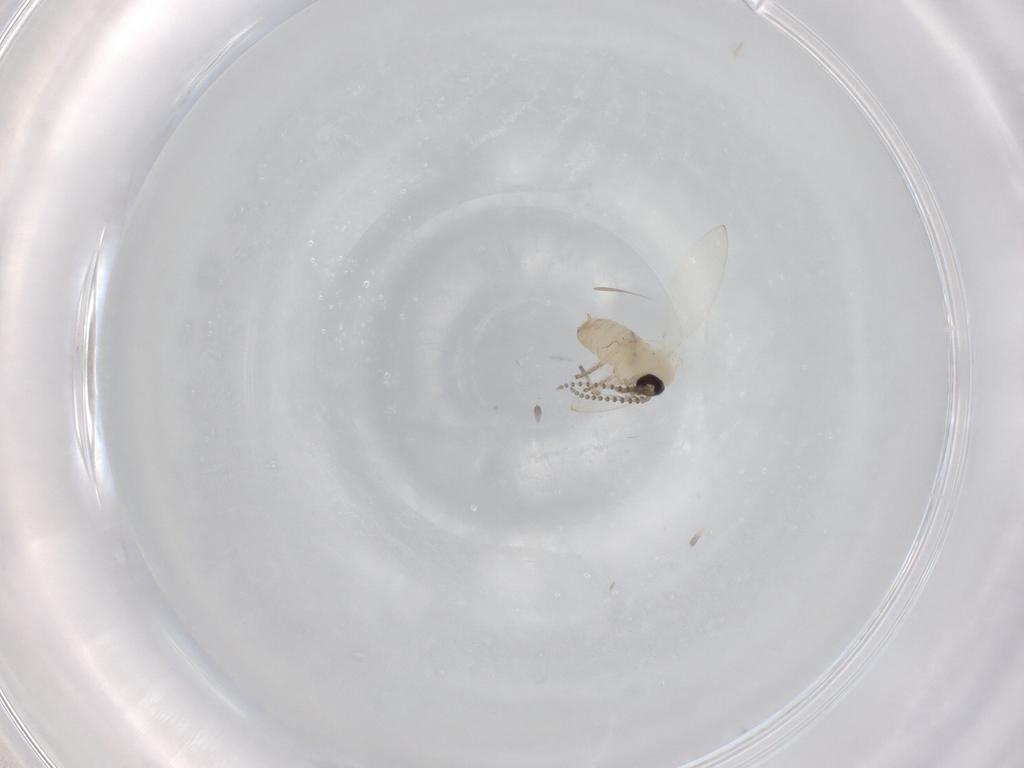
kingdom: Animalia
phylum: Arthropoda
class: Insecta
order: Diptera
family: Psychodidae
